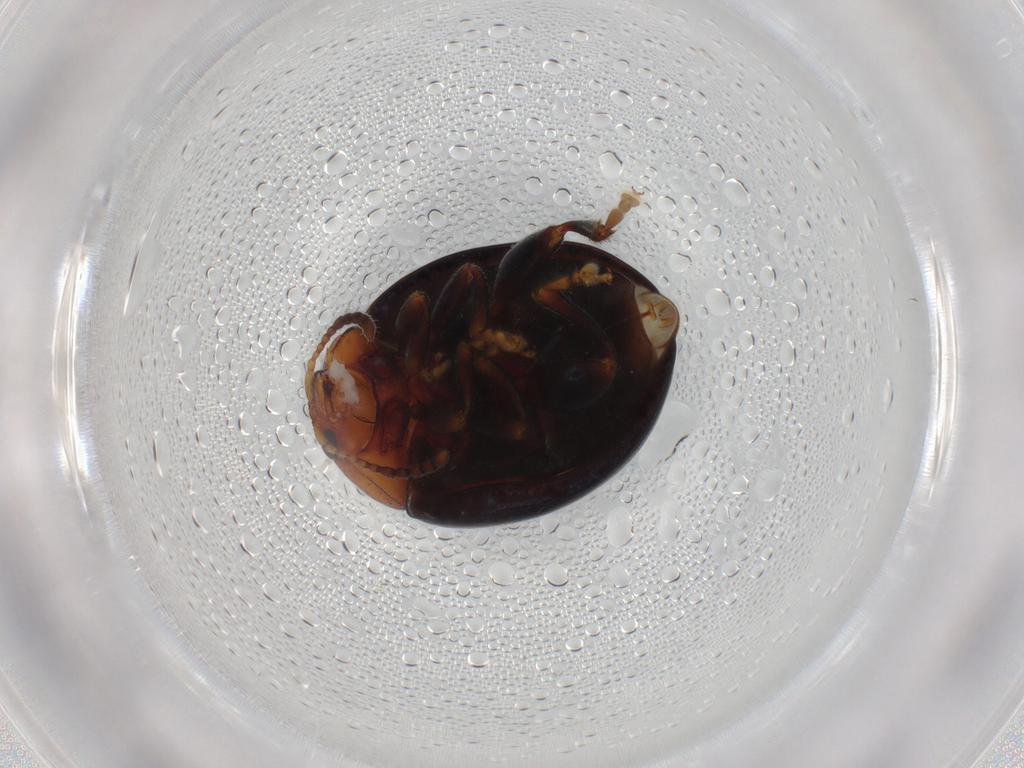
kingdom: Animalia
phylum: Arthropoda
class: Insecta
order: Coleoptera
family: Chrysomelidae
